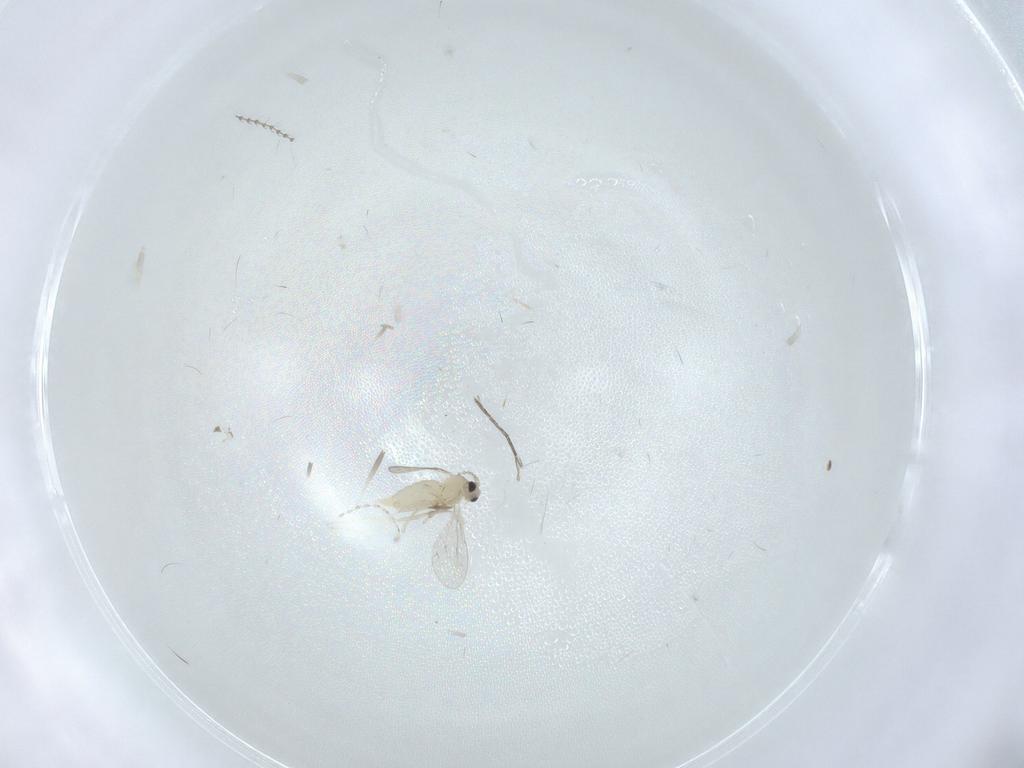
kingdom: Animalia
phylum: Arthropoda
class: Insecta
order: Diptera
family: Cecidomyiidae
